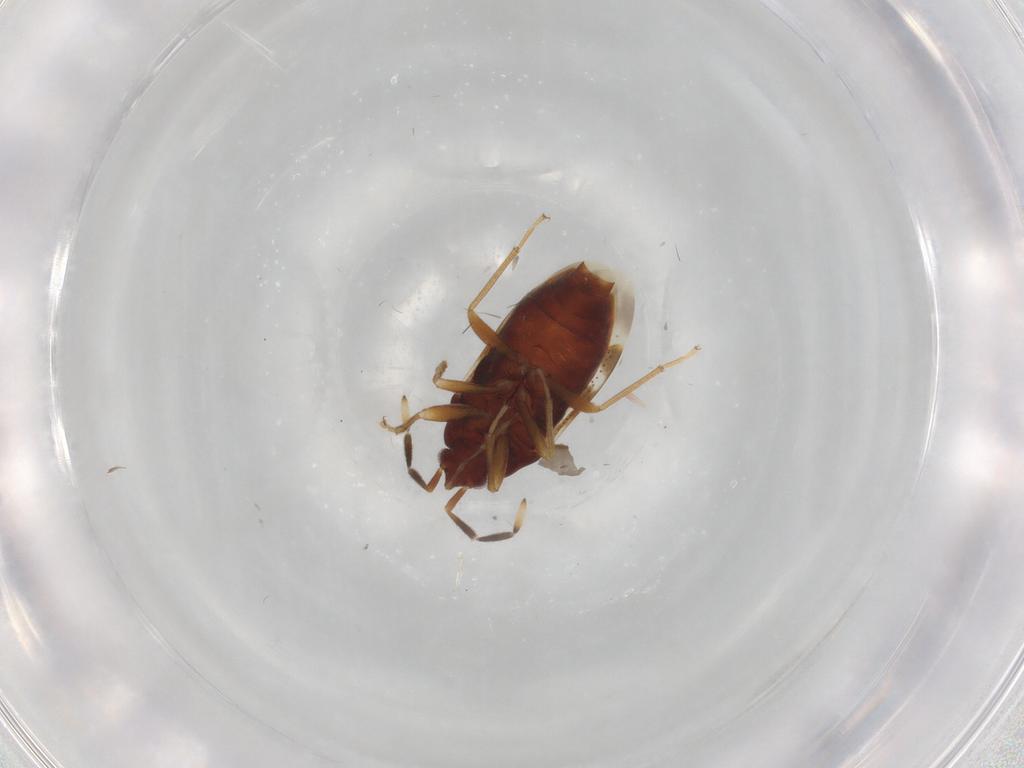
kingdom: Animalia
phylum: Arthropoda
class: Insecta
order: Hemiptera
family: Rhyparochromidae
